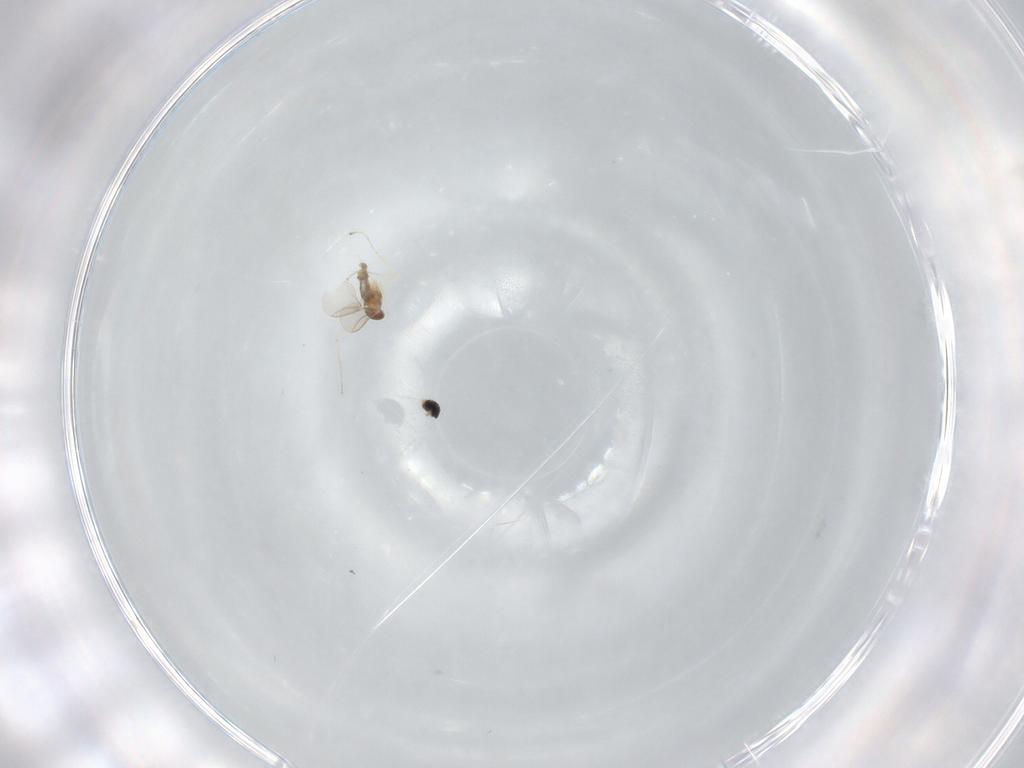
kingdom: Animalia
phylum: Arthropoda
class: Insecta
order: Diptera
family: Cecidomyiidae
